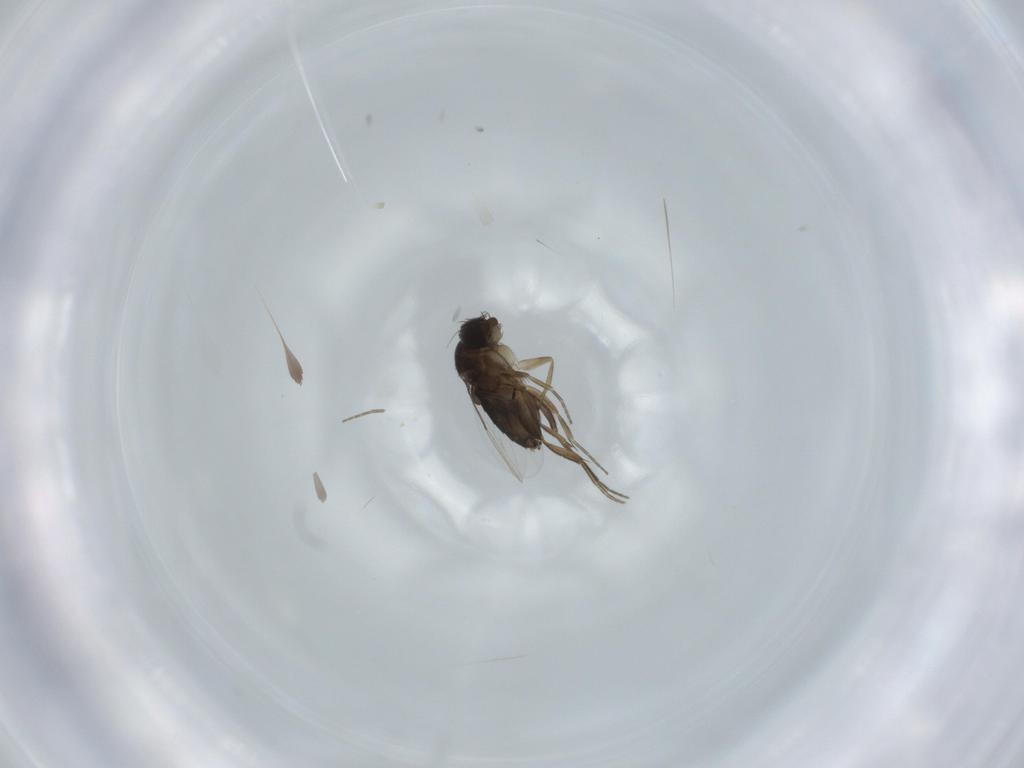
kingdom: Animalia
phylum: Arthropoda
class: Insecta
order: Diptera
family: Phoridae
